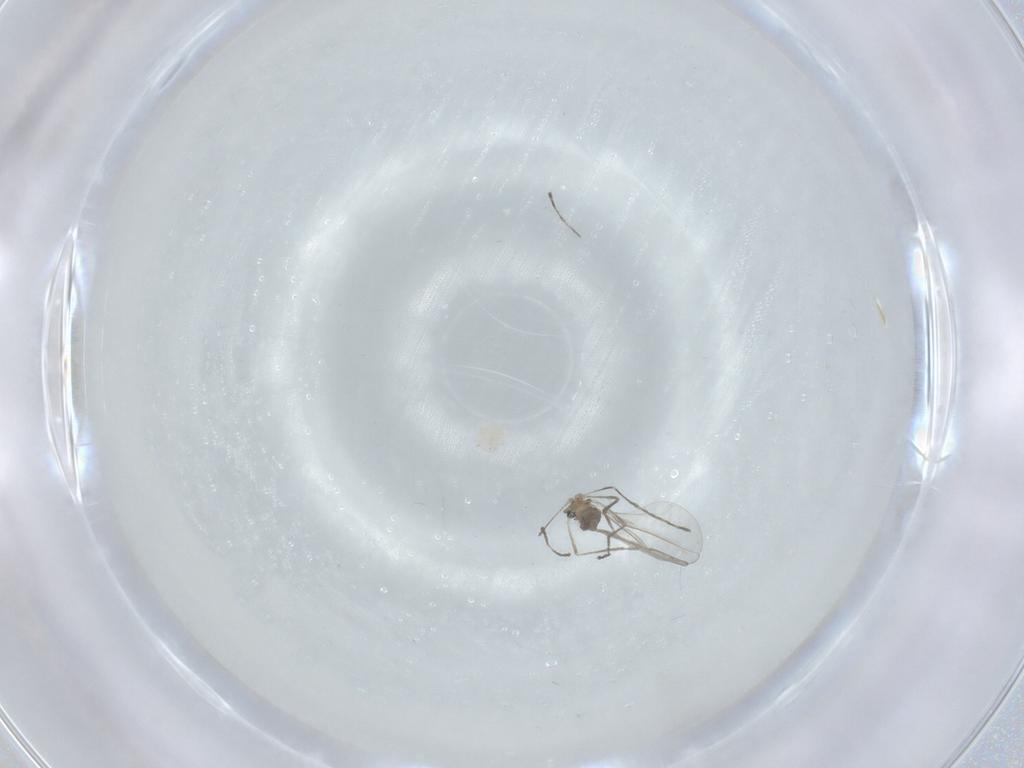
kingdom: Animalia
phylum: Arthropoda
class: Insecta
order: Diptera
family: Cecidomyiidae
